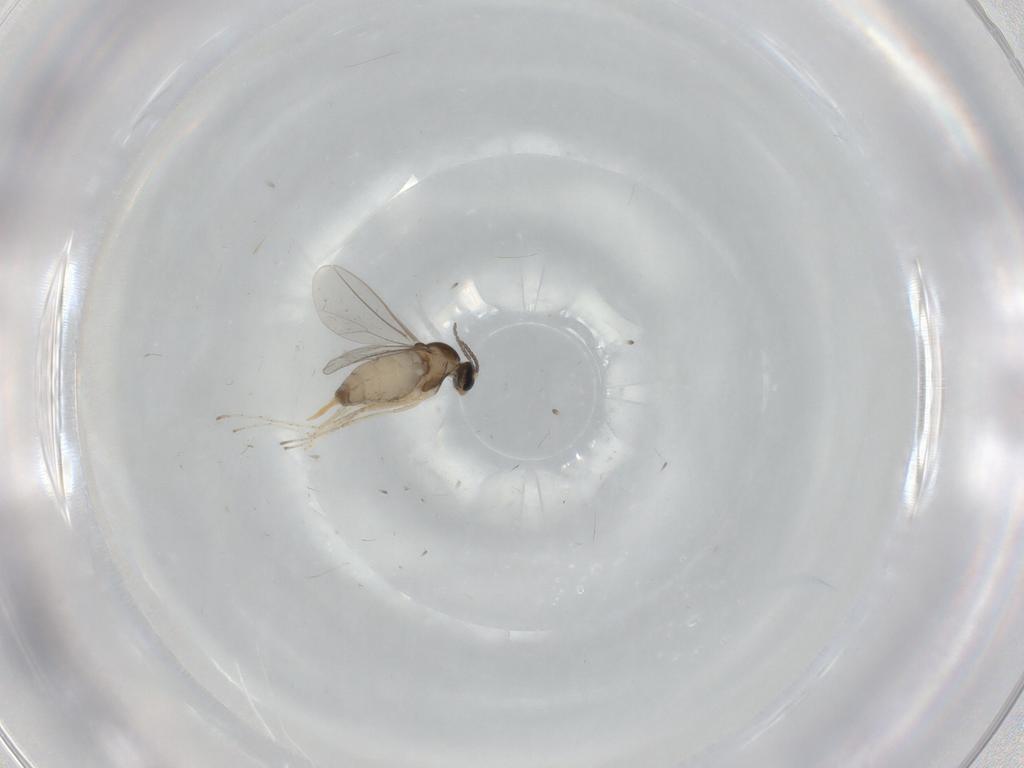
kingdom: Animalia
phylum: Arthropoda
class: Insecta
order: Diptera
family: Cecidomyiidae
